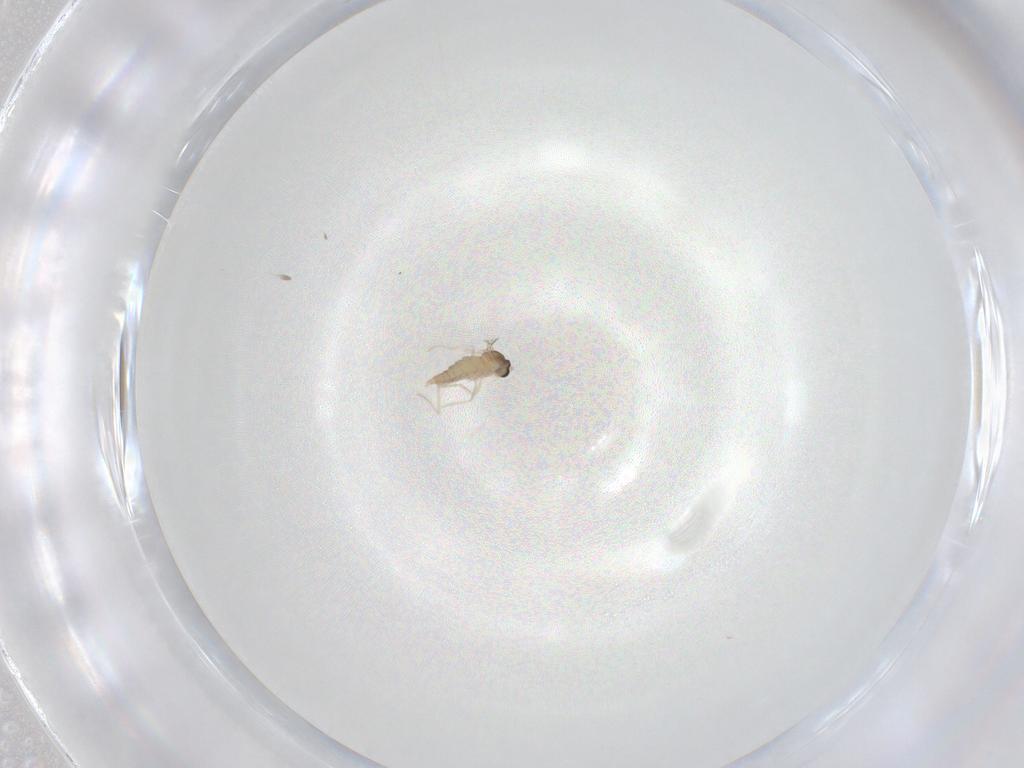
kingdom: Animalia
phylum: Arthropoda
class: Insecta
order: Diptera
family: Cecidomyiidae
